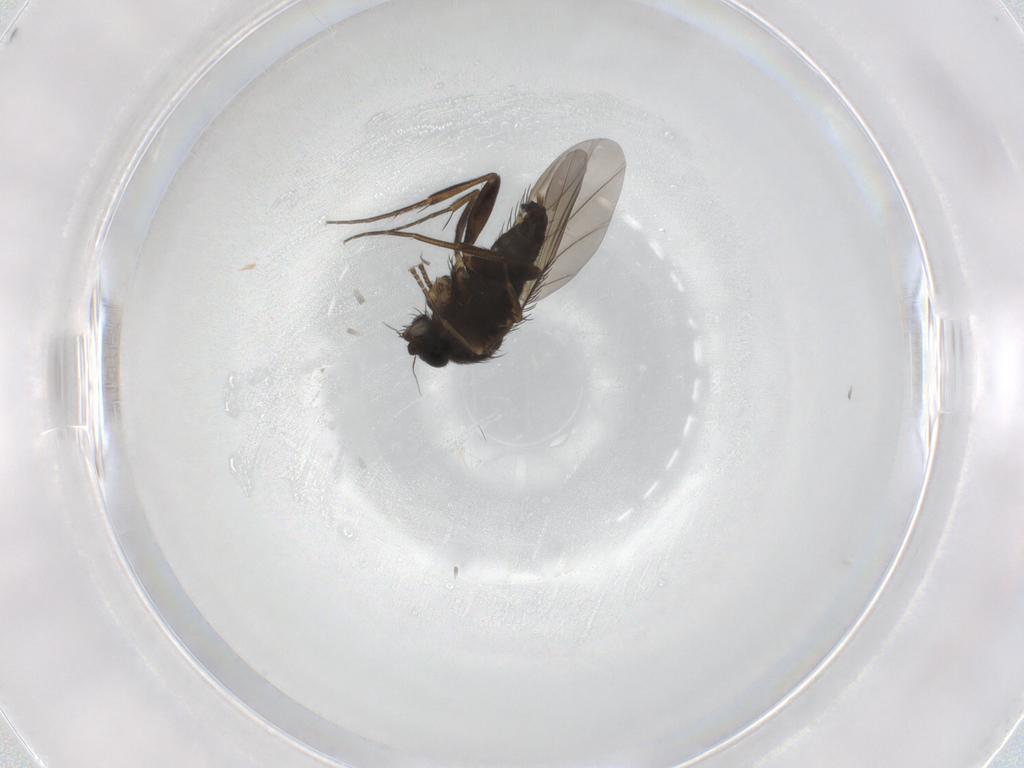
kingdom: Animalia
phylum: Arthropoda
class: Insecta
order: Diptera
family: Phoridae
